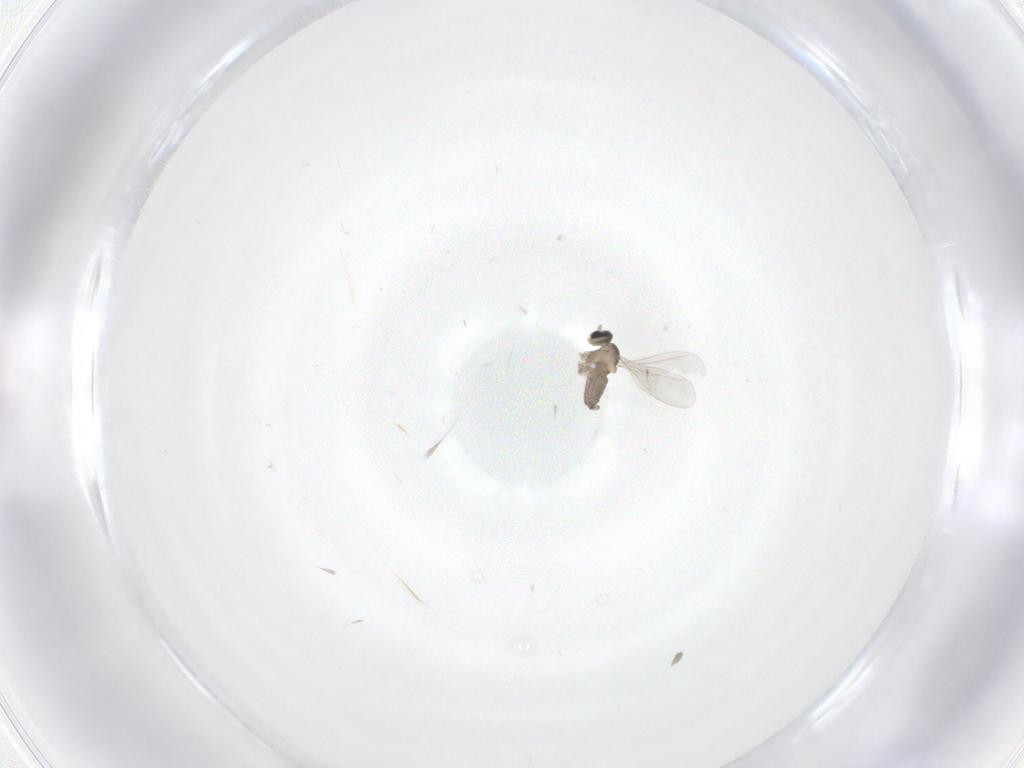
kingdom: Animalia
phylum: Arthropoda
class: Insecta
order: Diptera
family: Cecidomyiidae
